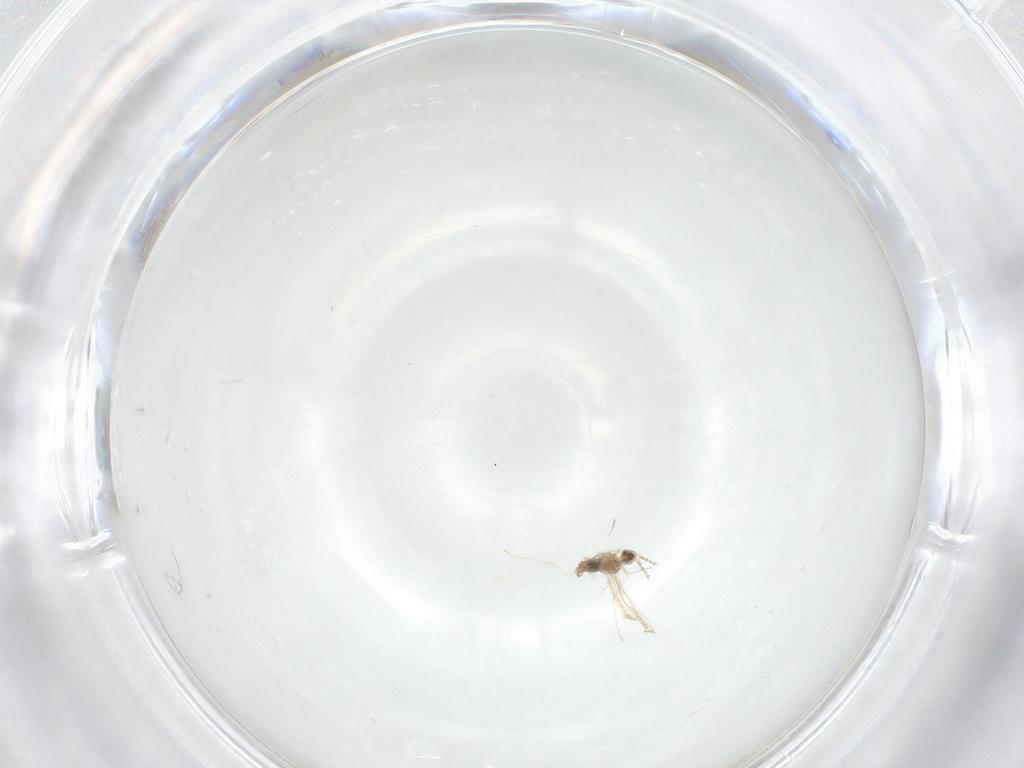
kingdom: Animalia
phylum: Arthropoda
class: Insecta
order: Diptera
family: Cecidomyiidae
